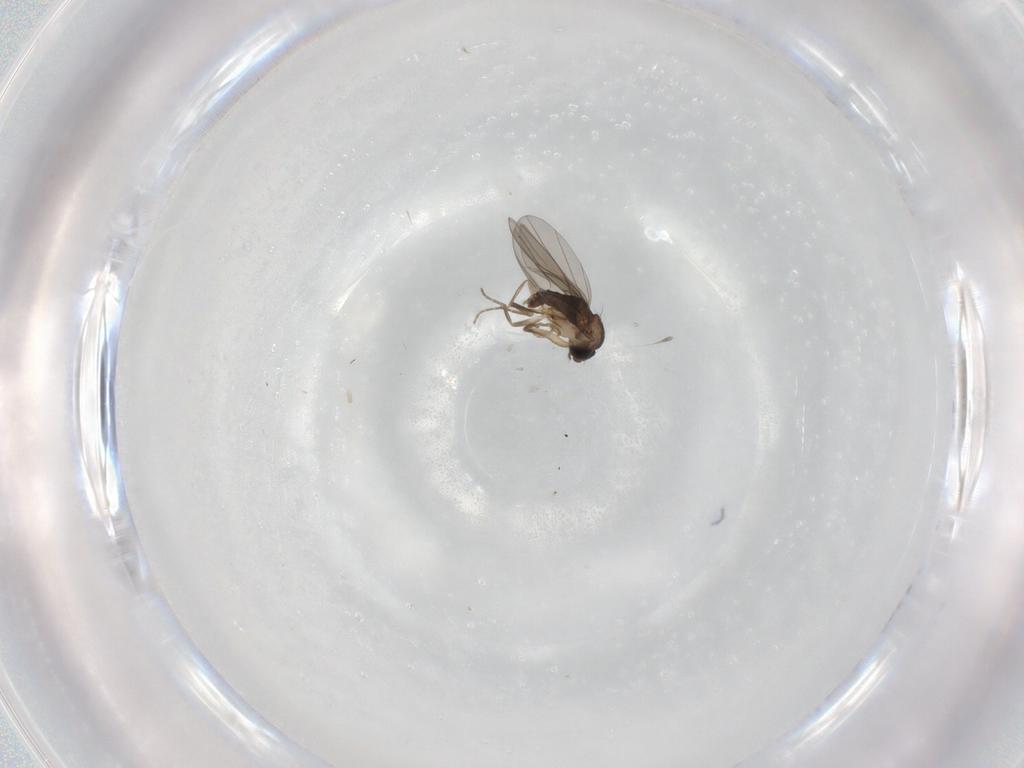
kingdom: Animalia
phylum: Arthropoda
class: Insecta
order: Diptera
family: Phoridae
